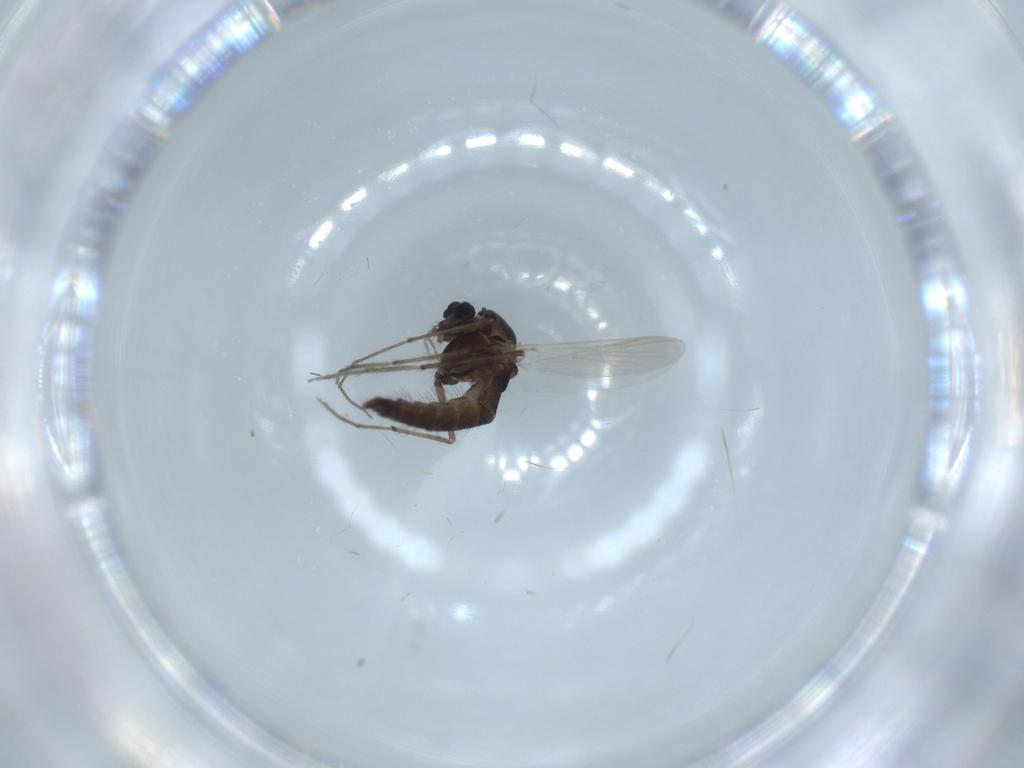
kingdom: Animalia
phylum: Arthropoda
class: Insecta
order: Diptera
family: Chironomidae
